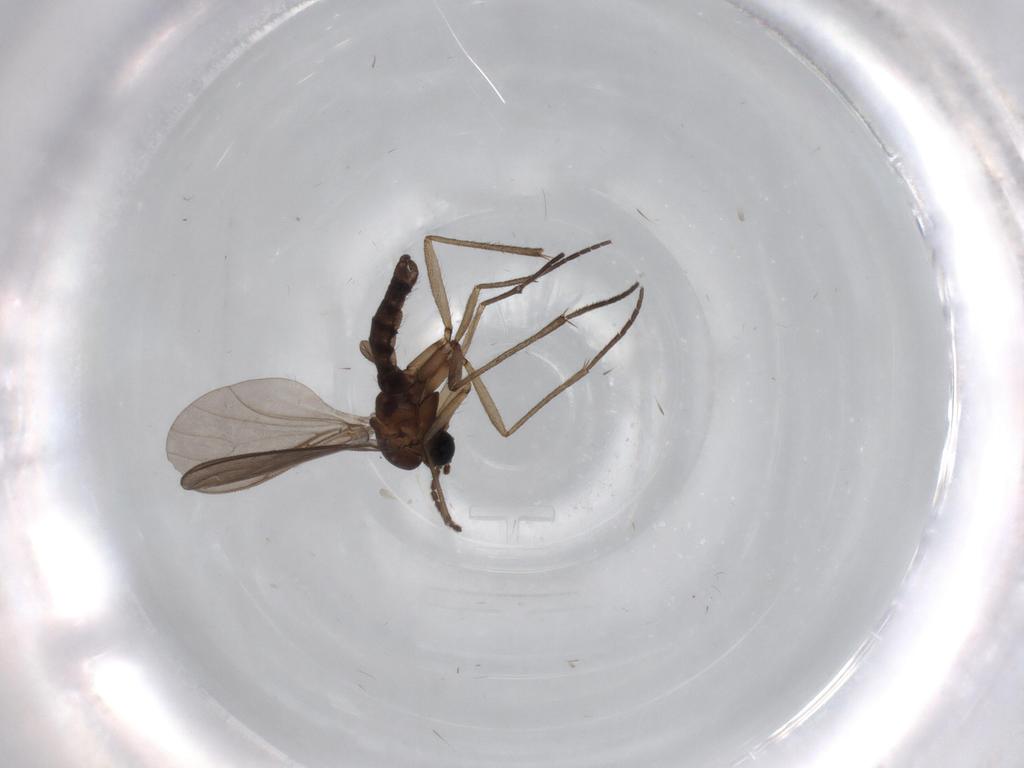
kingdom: Animalia
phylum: Arthropoda
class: Insecta
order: Diptera
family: Sciaridae
